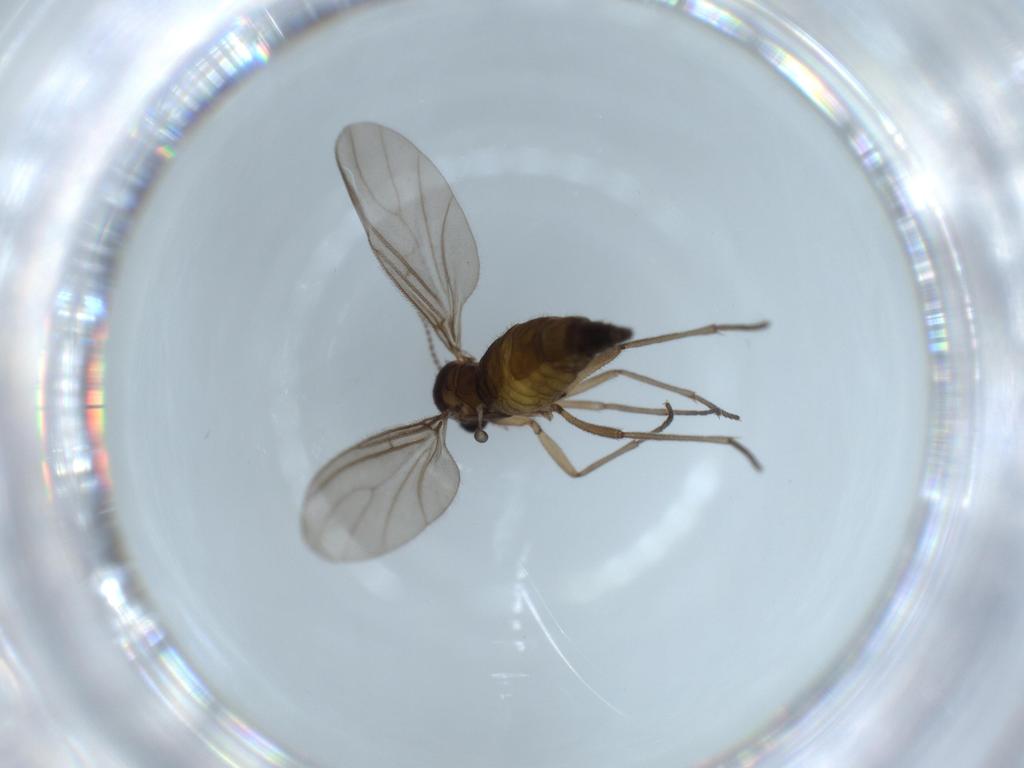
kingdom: Animalia
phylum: Arthropoda
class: Insecta
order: Diptera
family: Sciaridae
